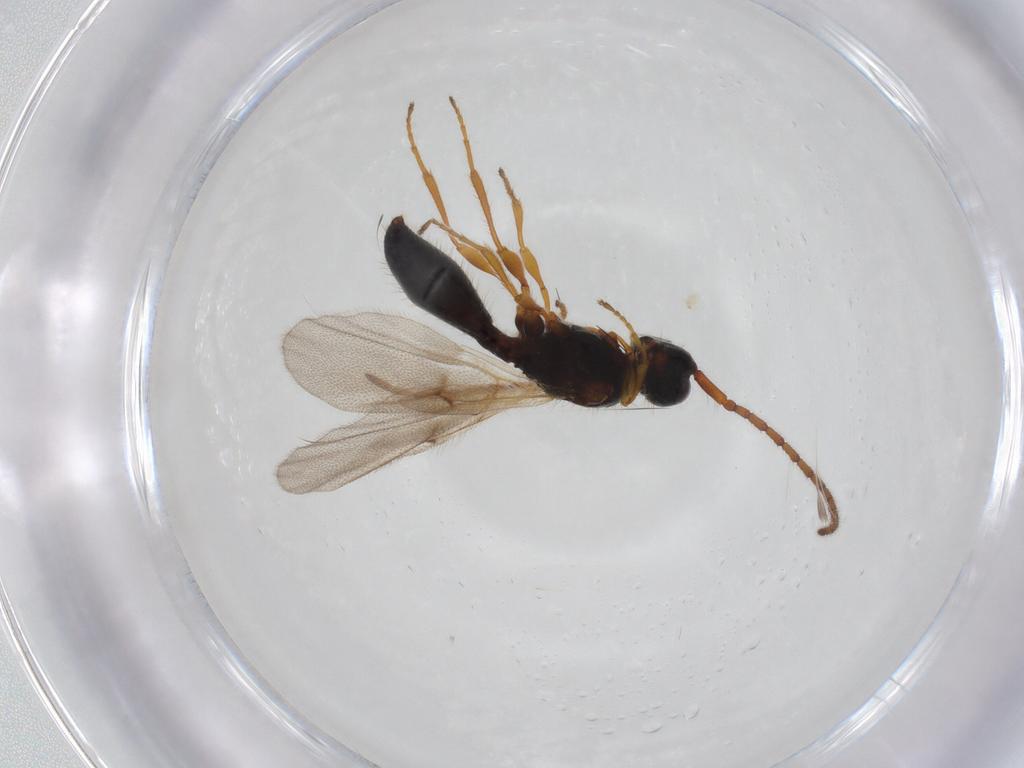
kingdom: Animalia
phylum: Arthropoda
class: Insecta
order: Hymenoptera
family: Diapriidae
